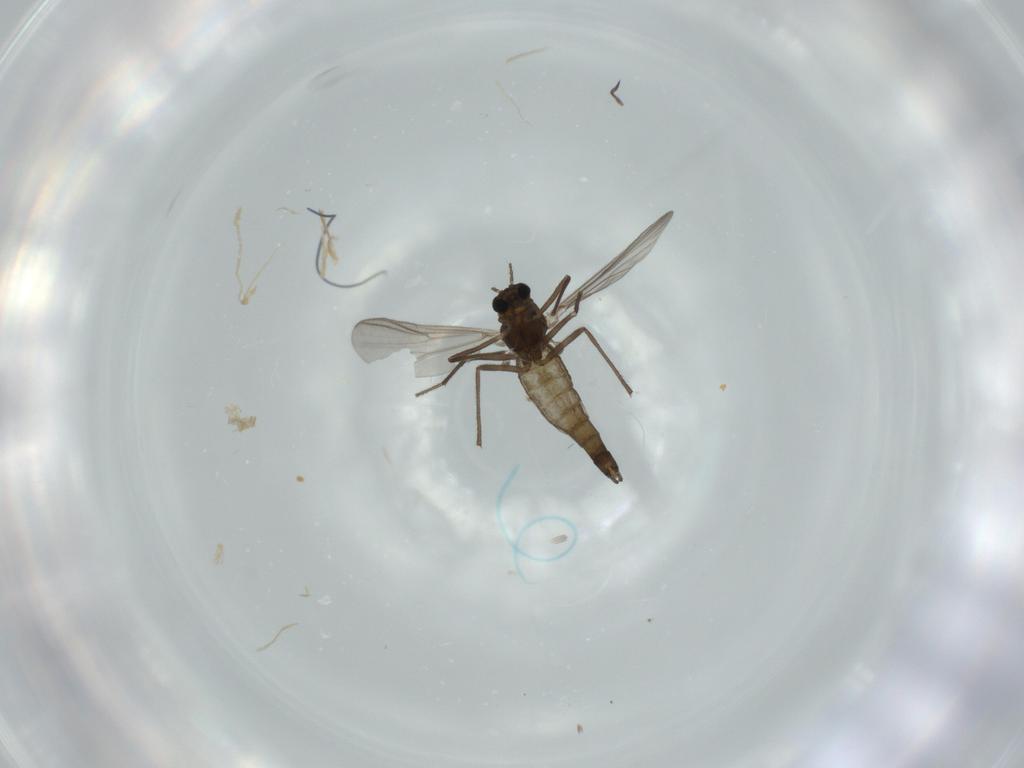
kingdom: Animalia
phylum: Arthropoda
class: Insecta
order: Diptera
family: Chironomidae
